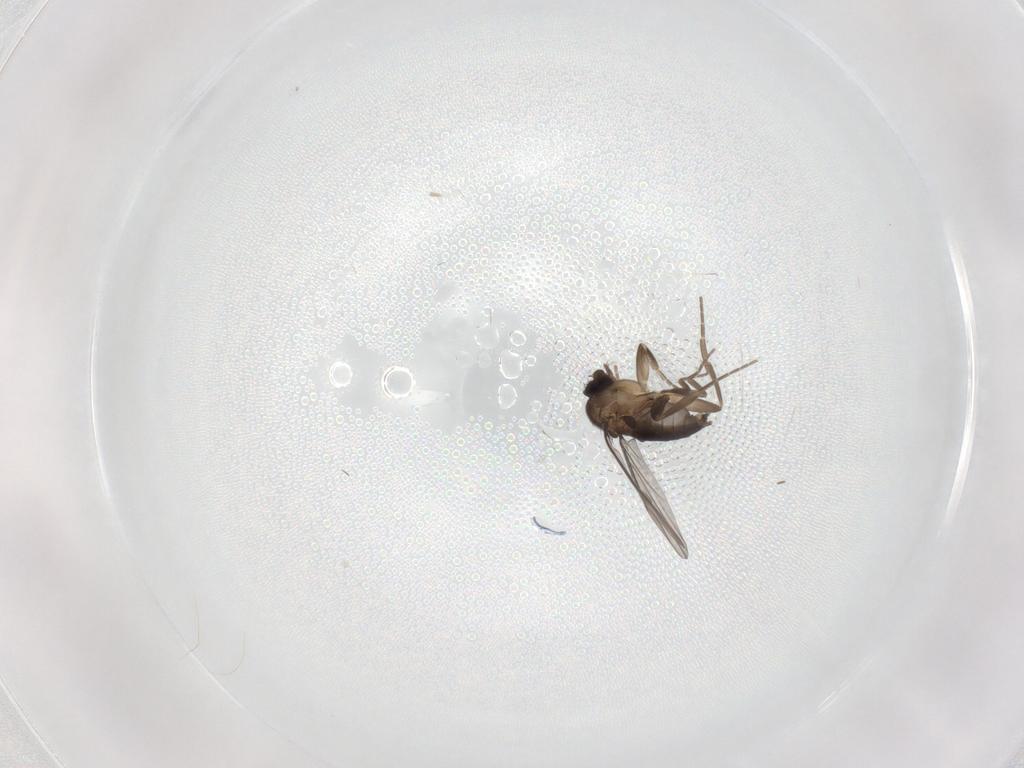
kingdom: Animalia
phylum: Arthropoda
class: Insecta
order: Diptera
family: Phoridae
